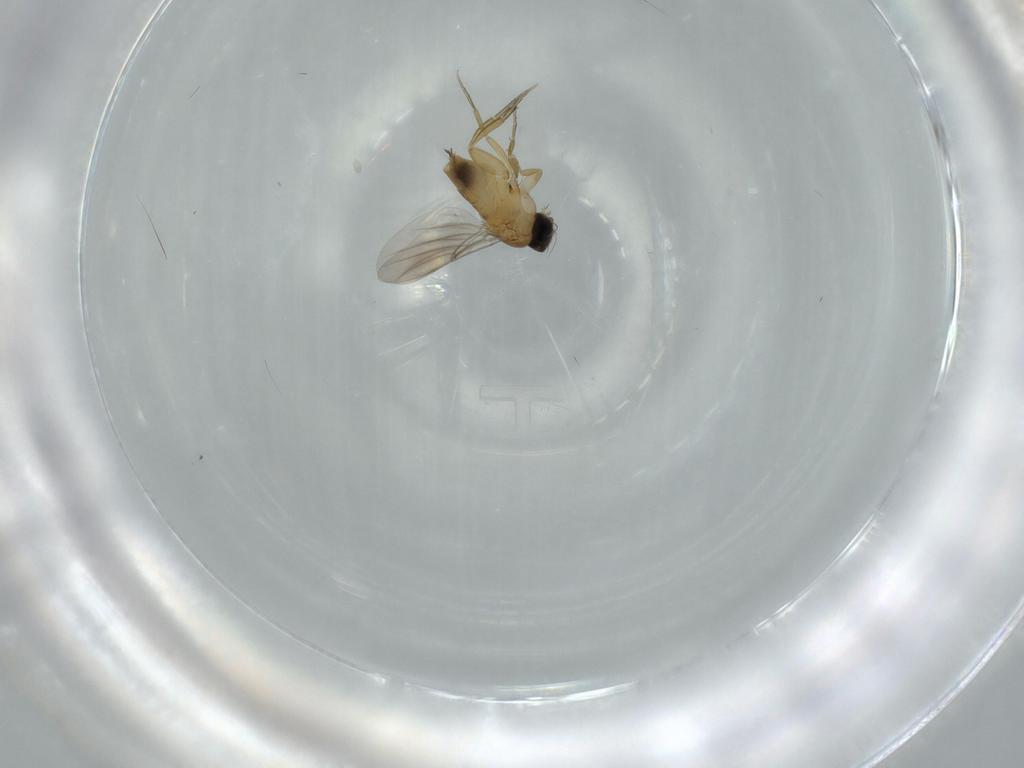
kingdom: Animalia
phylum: Arthropoda
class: Insecta
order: Diptera
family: Phoridae
